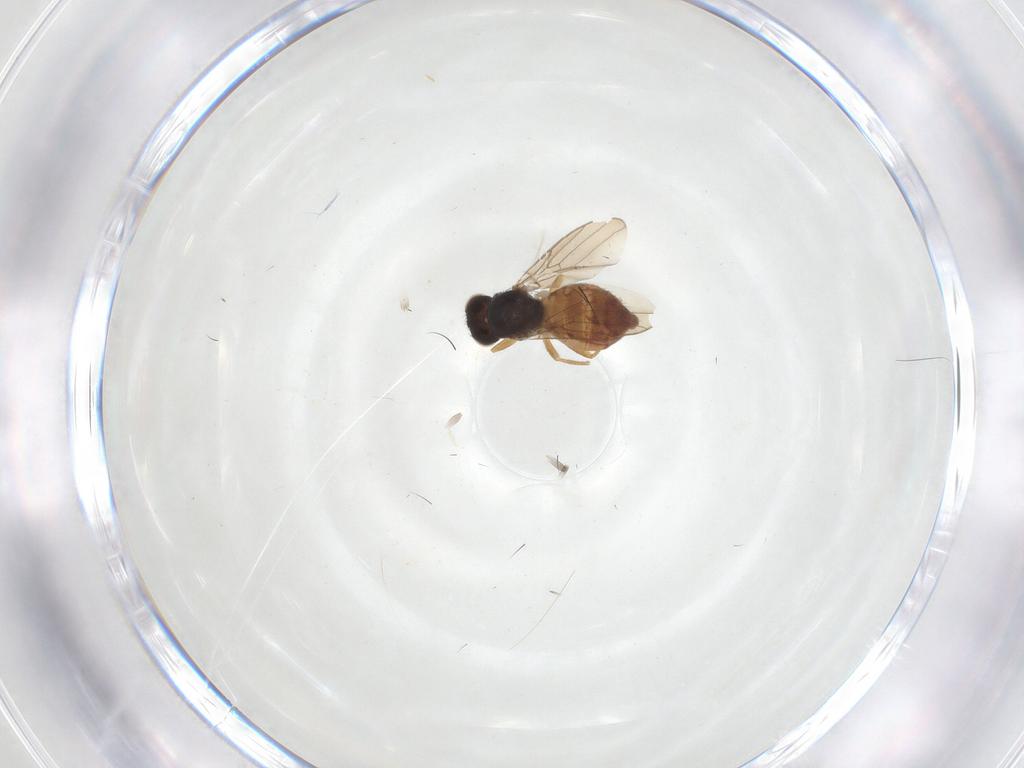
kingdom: Animalia
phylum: Arthropoda
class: Insecta
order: Diptera
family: Chloropidae
